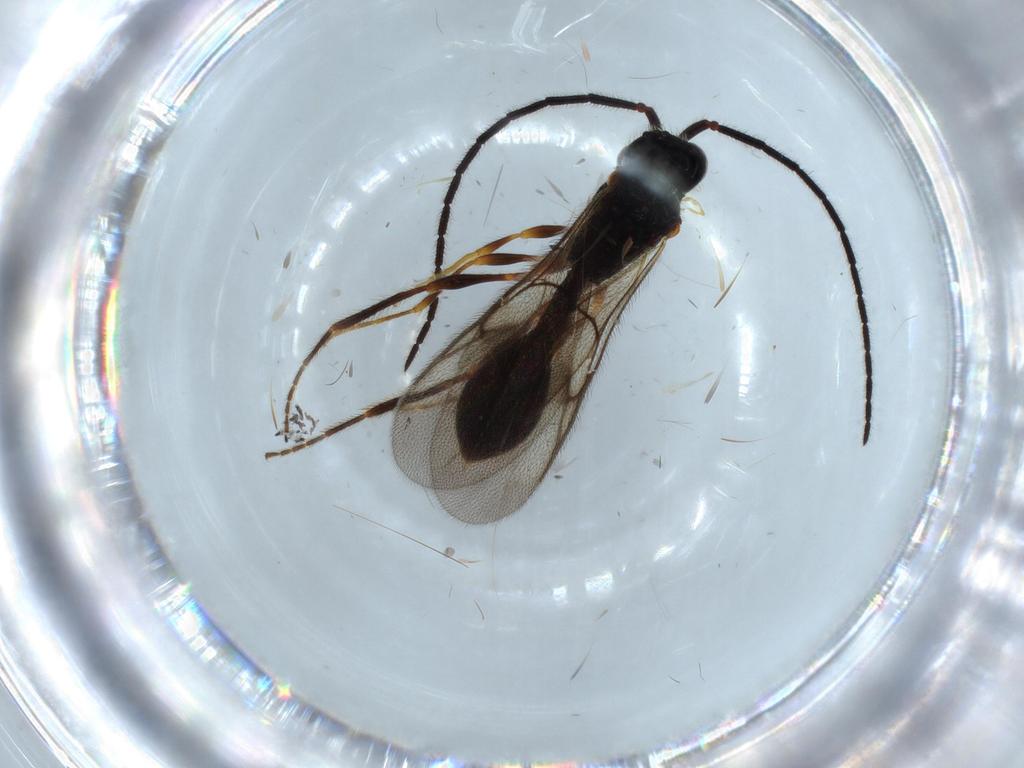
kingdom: Animalia
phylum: Arthropoda
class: Insecta
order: Hymenoptera
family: Diapriidae
